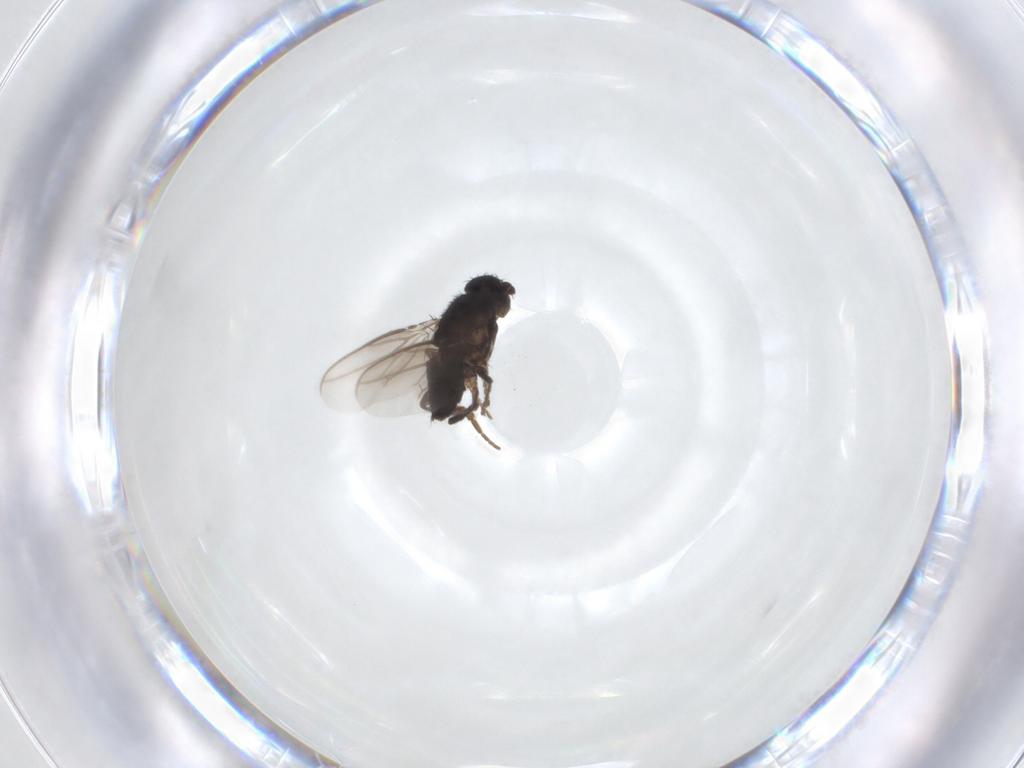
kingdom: Animalia
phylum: Arthropoda
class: Insecta
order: Diptera
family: Sphaeroceridae
